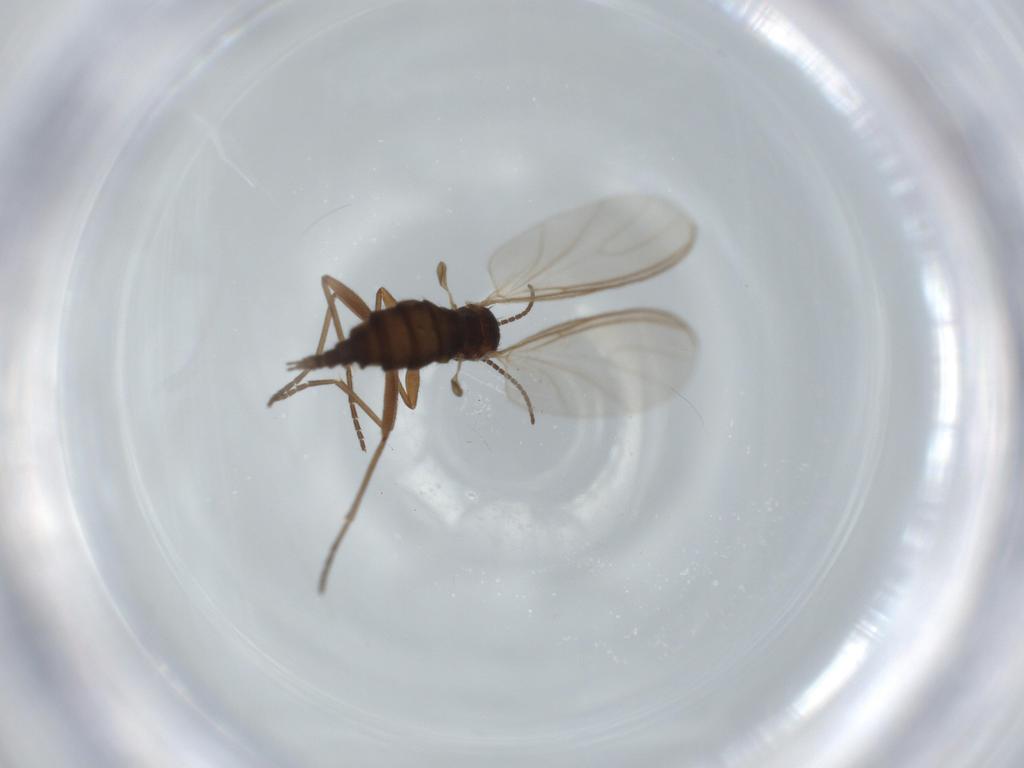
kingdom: Animalia
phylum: Arthropoda
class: Insecta
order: Diptera
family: Sciaridae
